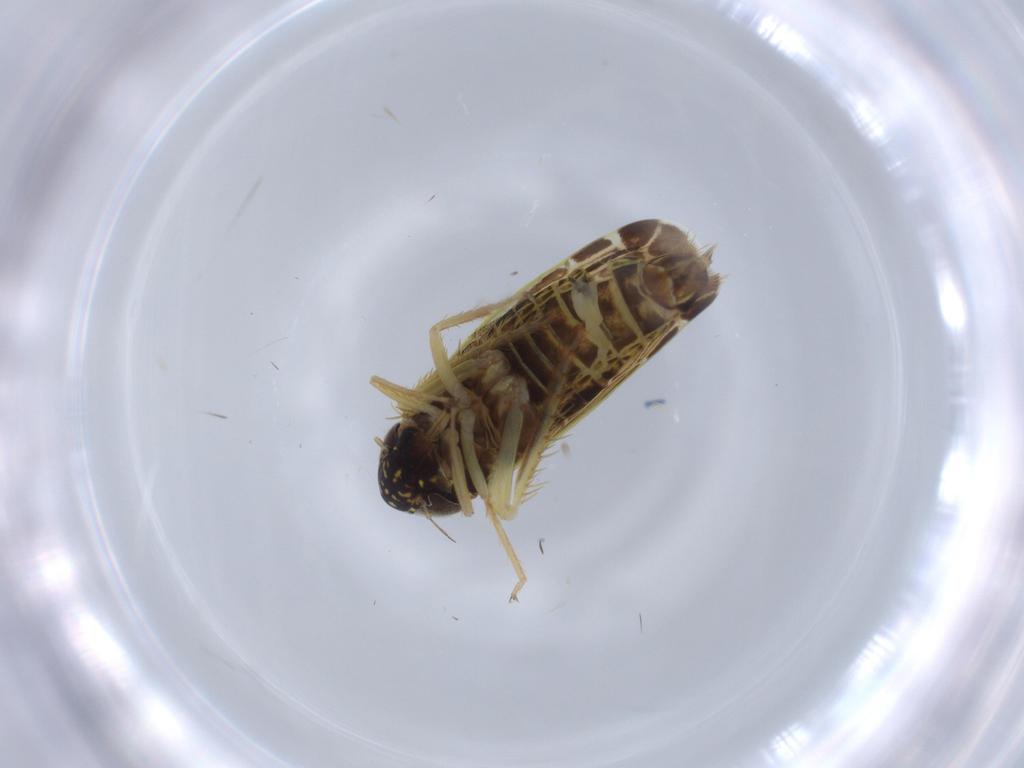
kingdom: Animalia
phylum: Arthropoda
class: Insecta
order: Hemiptera
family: Cicadellidae
